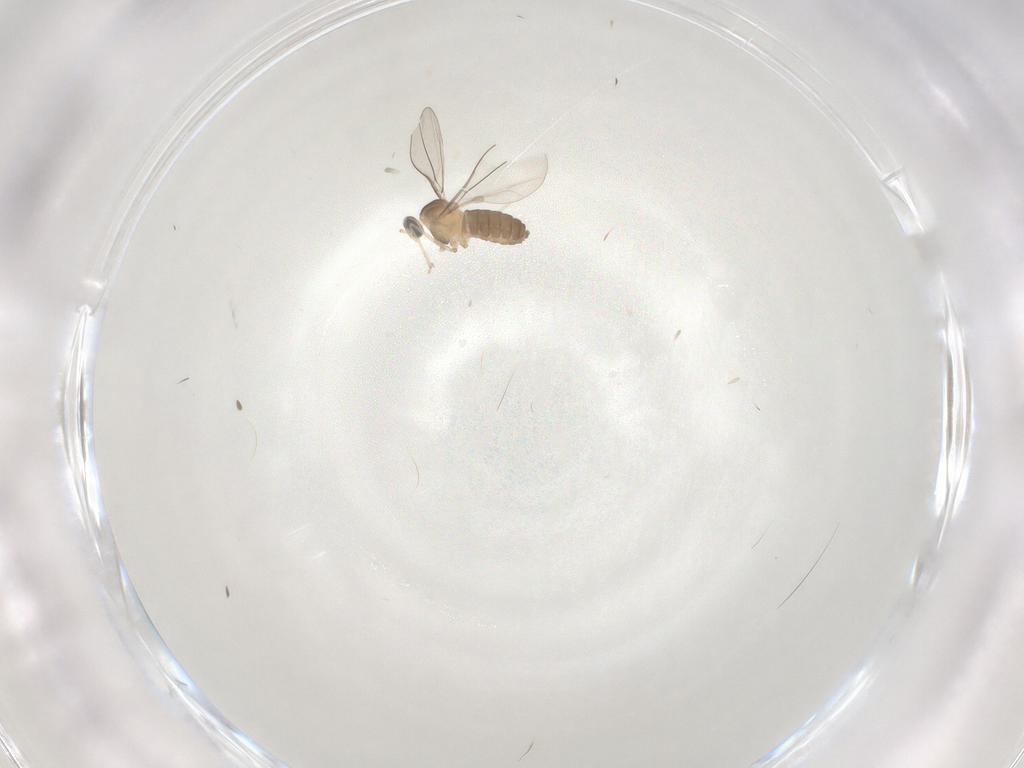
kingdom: Animalia
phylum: Arthropoda
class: Insecta
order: Diptera
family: Cecidomyiidae
